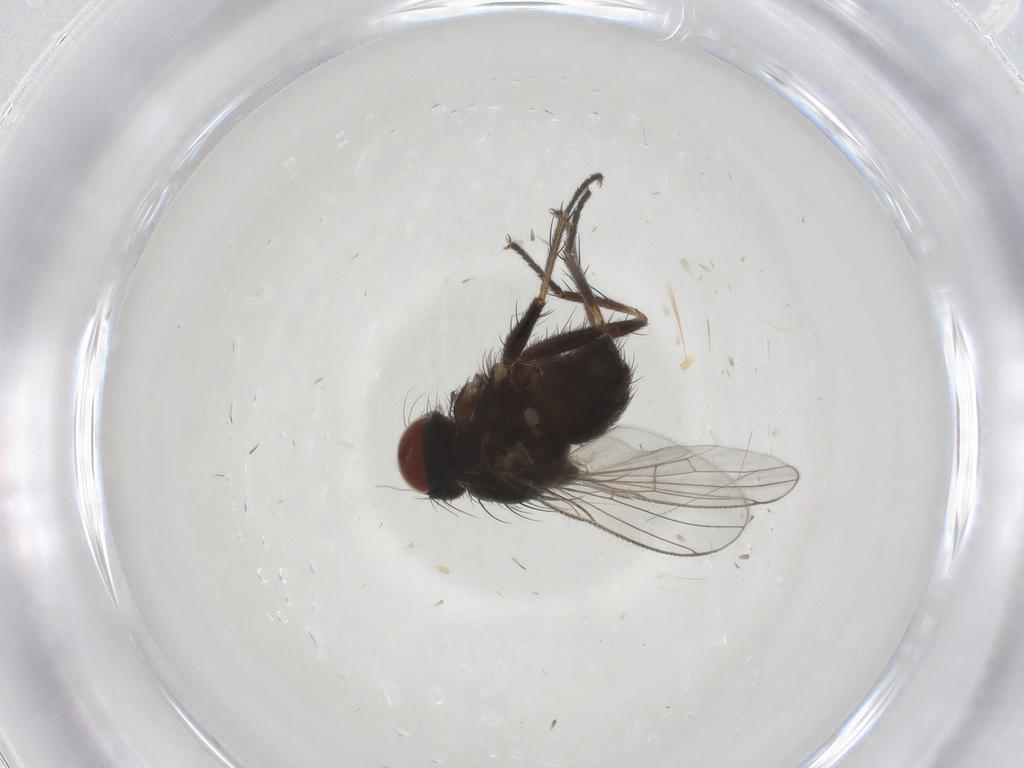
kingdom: Animalia
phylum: Arthropoda
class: Insecta
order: Diptera
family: Muscidae
